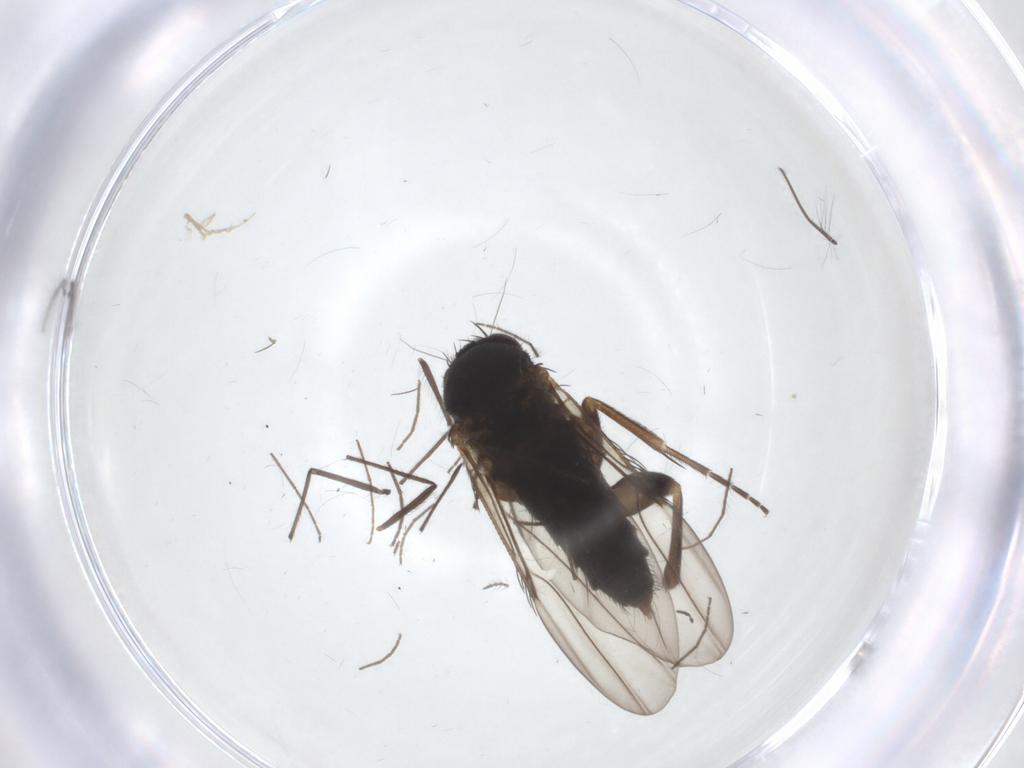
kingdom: Animalia
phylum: Arthropoda
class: Insecta
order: Diptera
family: Phoridae
